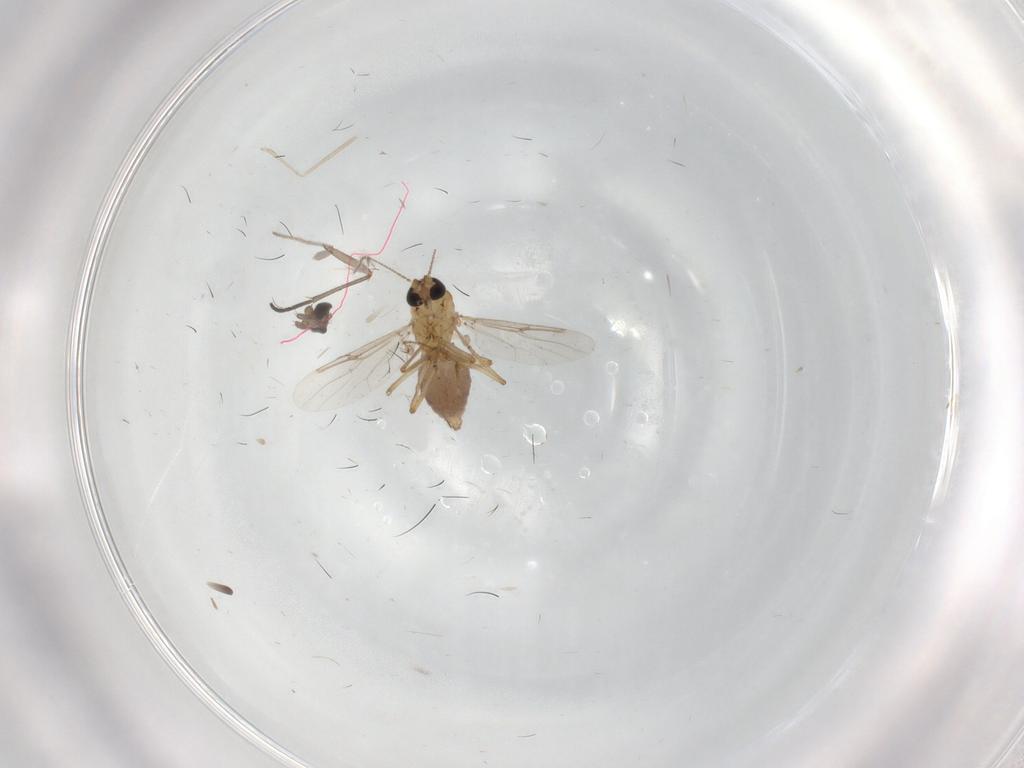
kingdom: Animalia
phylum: Arthropoda
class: Insecta
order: Diptera
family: Sciaridae
